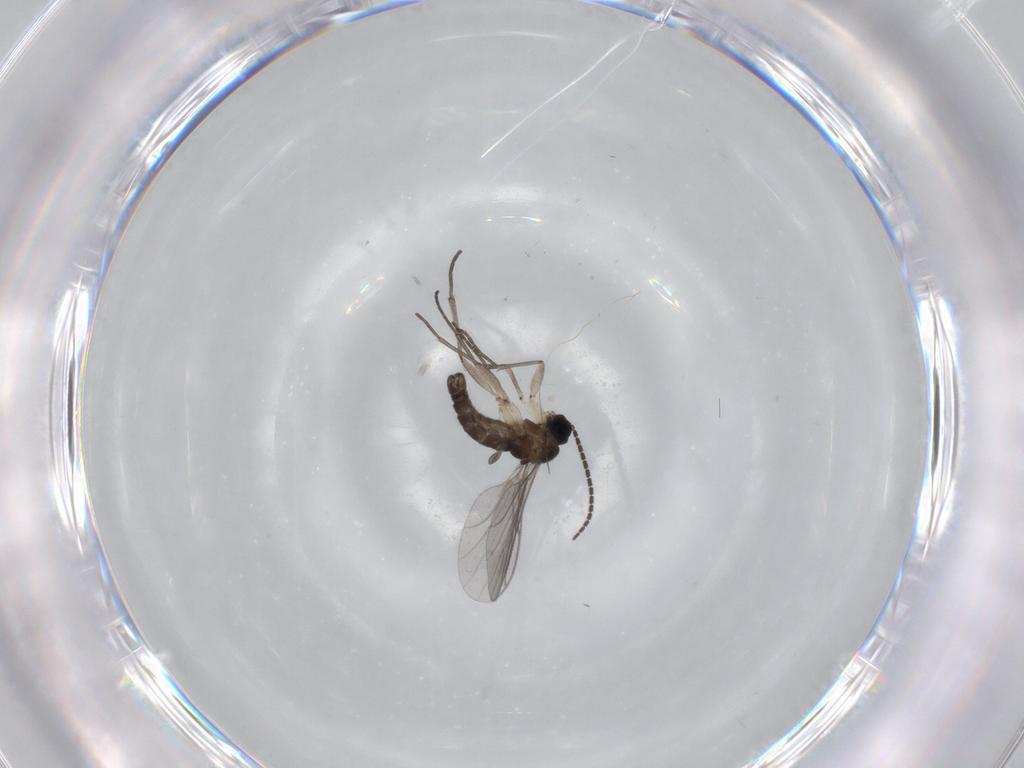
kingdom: Animalia
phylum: Arthropoda
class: Insecta
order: Diptera
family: Sciaridae
